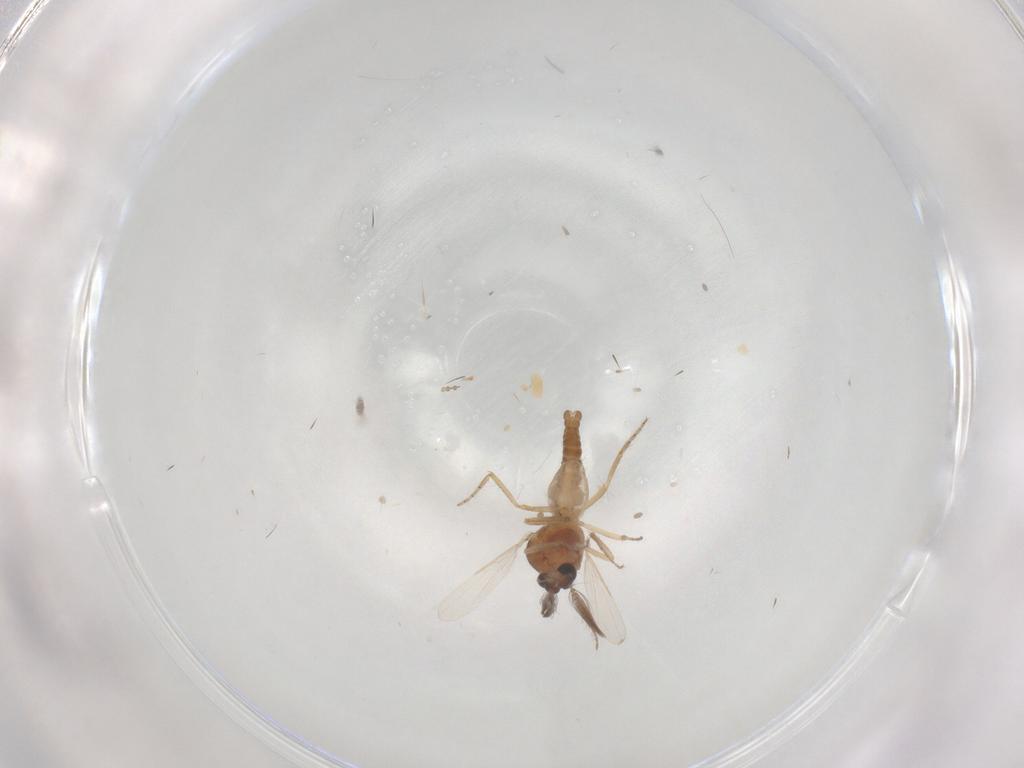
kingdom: Animalia
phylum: Arthropoda
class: Insecta
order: Diptera
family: Ceratopogonidae
